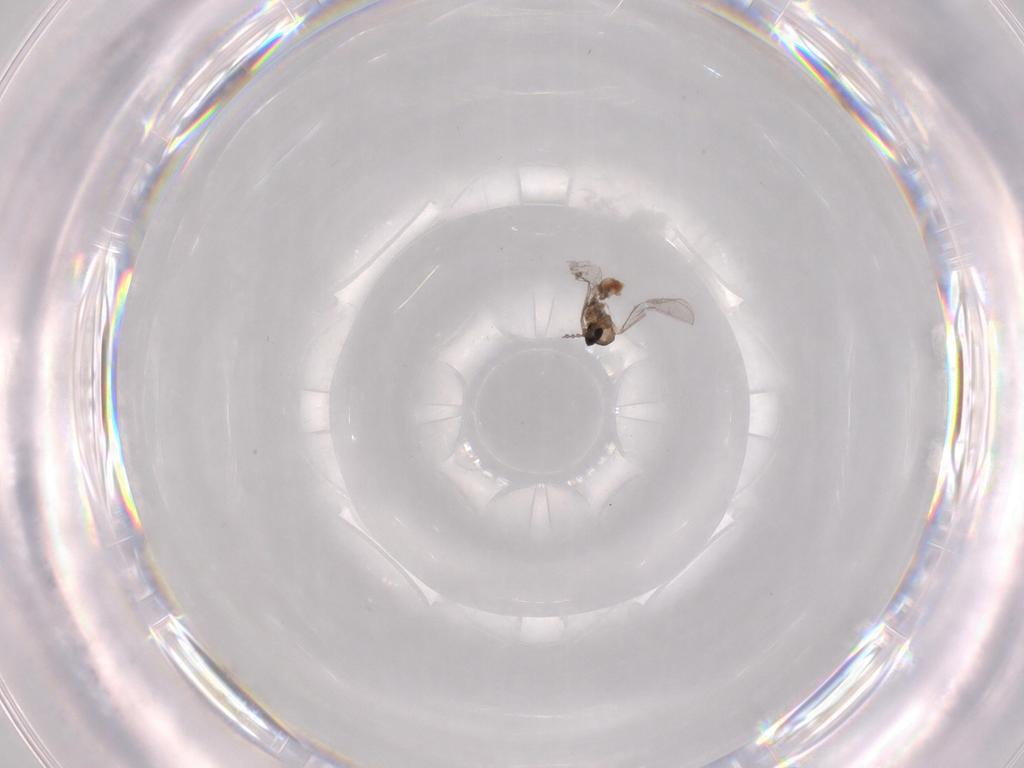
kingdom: Animalia
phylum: Arthropoda
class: Insecta
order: Diptera
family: Cecidomyiidae
